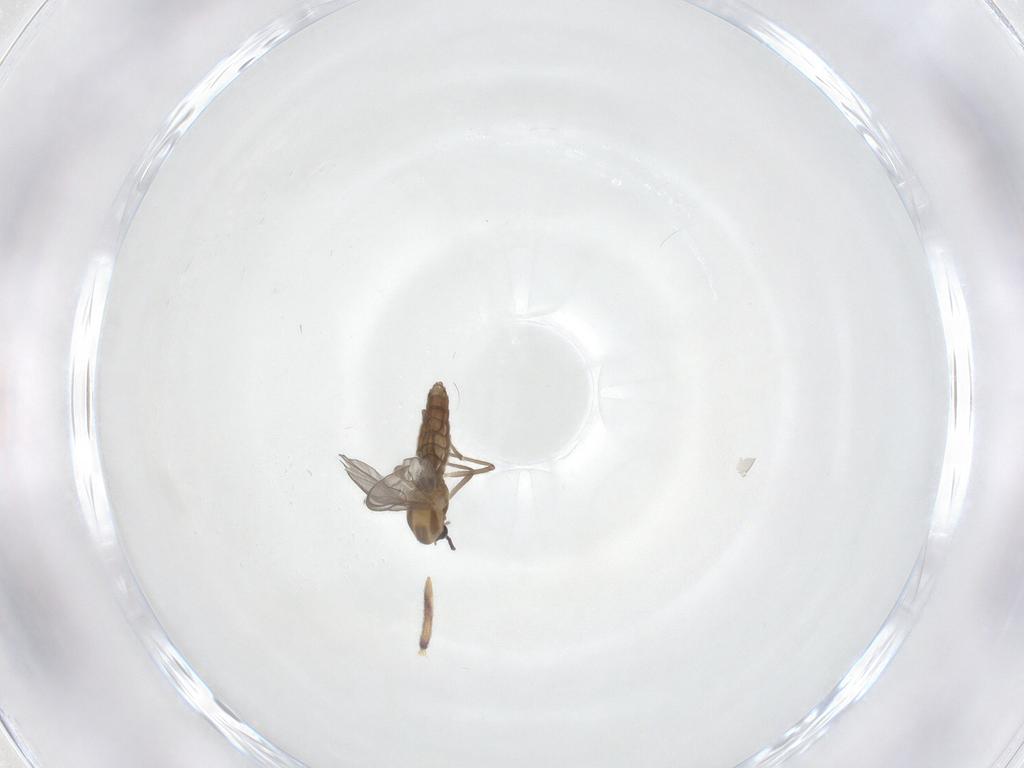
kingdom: Animalia
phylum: Arthropoda
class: Insecta
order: Diptera
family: Chironomidae
